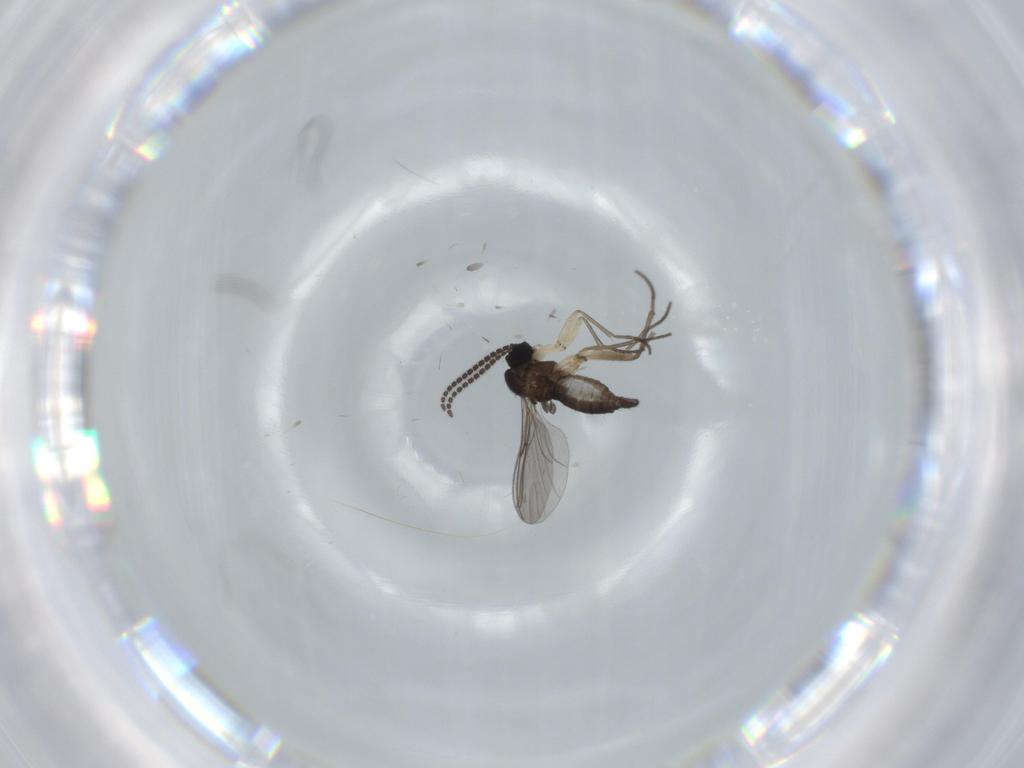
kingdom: Animalia
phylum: Arthropoda
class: Insecta
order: Diptera
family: Sciaridae
